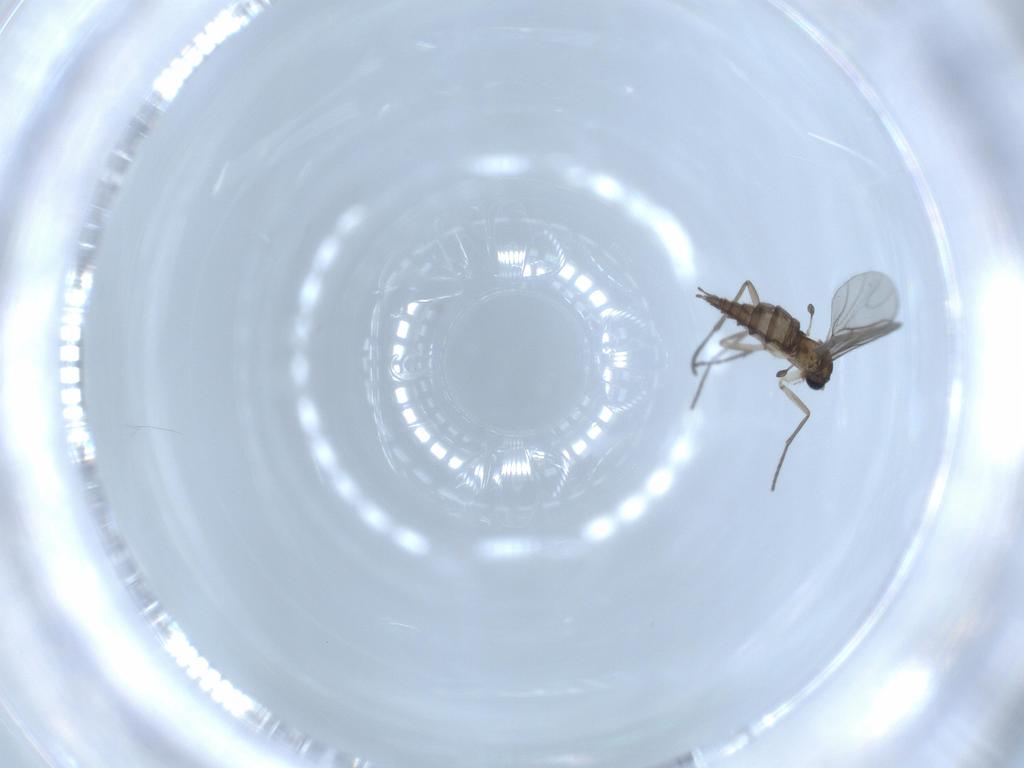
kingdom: Animalia
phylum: Arthropoda
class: Insecta
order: Diptera
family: Sciaridae
